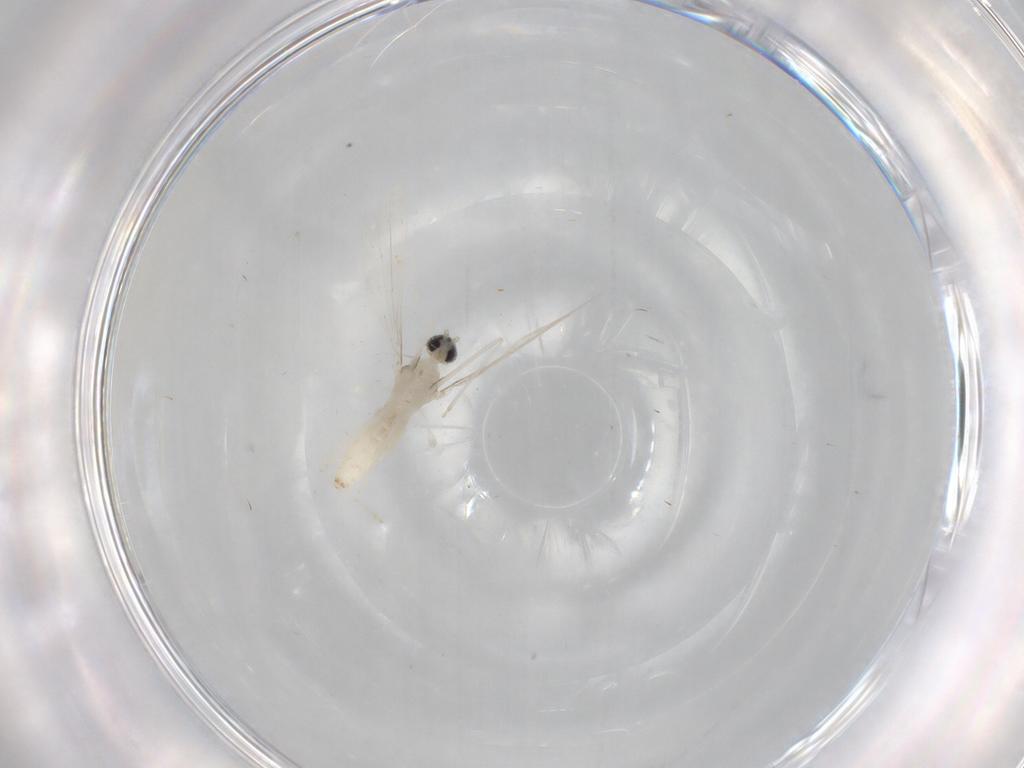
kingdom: Animalia
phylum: Arthropoda
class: Insecta
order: Diptera
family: Cecidomyiidae
